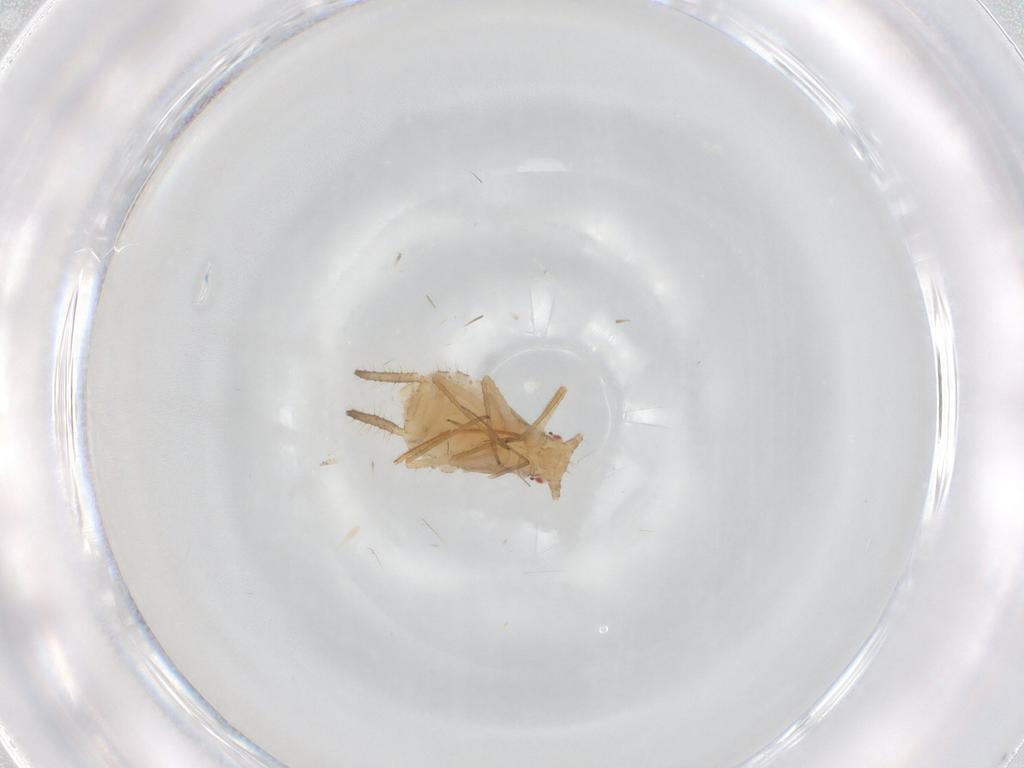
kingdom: Animalia
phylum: Arthropoda
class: Insecta
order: Hemiptera
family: Aphididae
